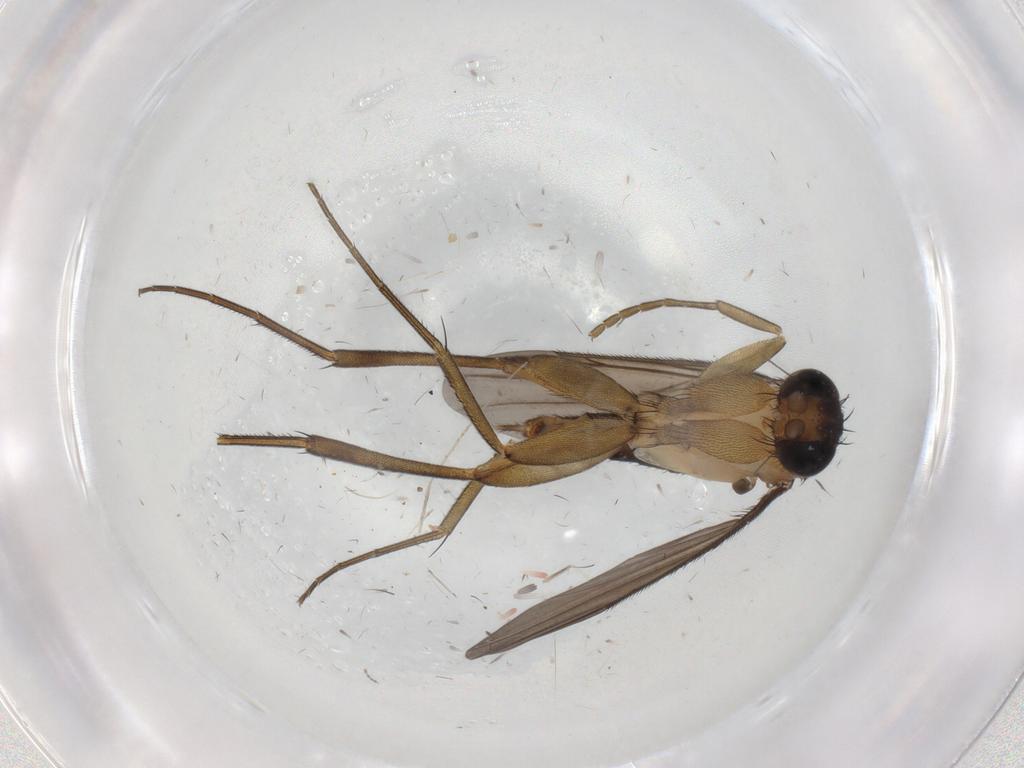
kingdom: Animalia
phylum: Arthropoda
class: Insecta
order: Diptera
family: Phoridae
